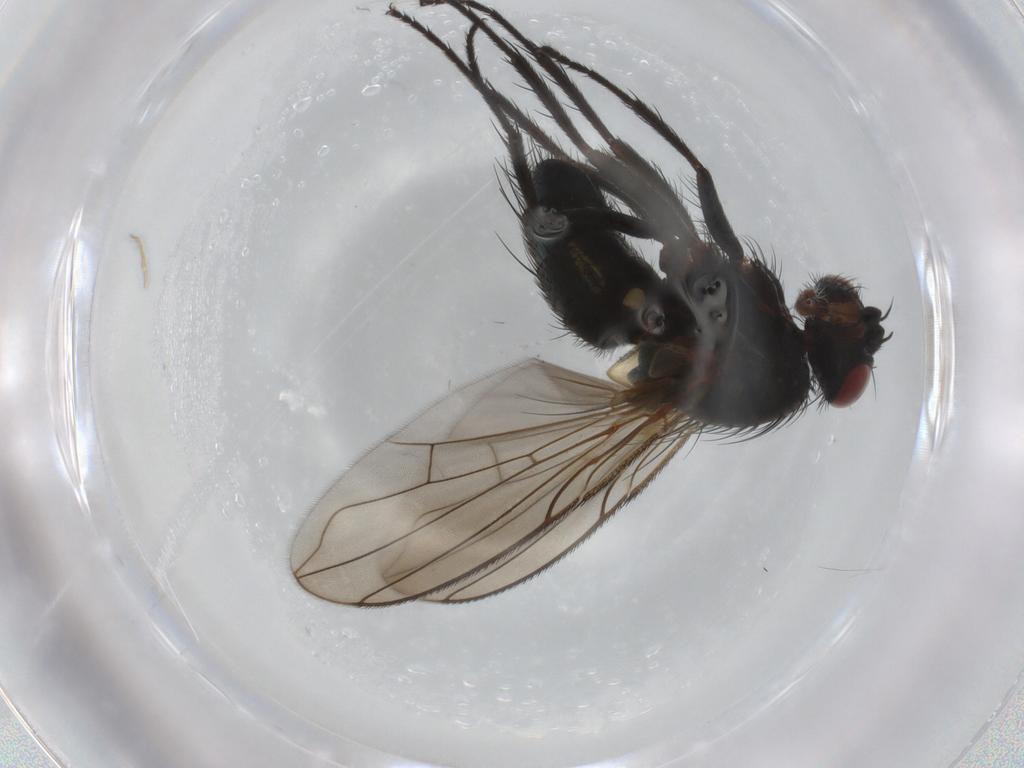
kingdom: Animalia
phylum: Arthropoda
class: Insecta
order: Diptera
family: Tachinidae
